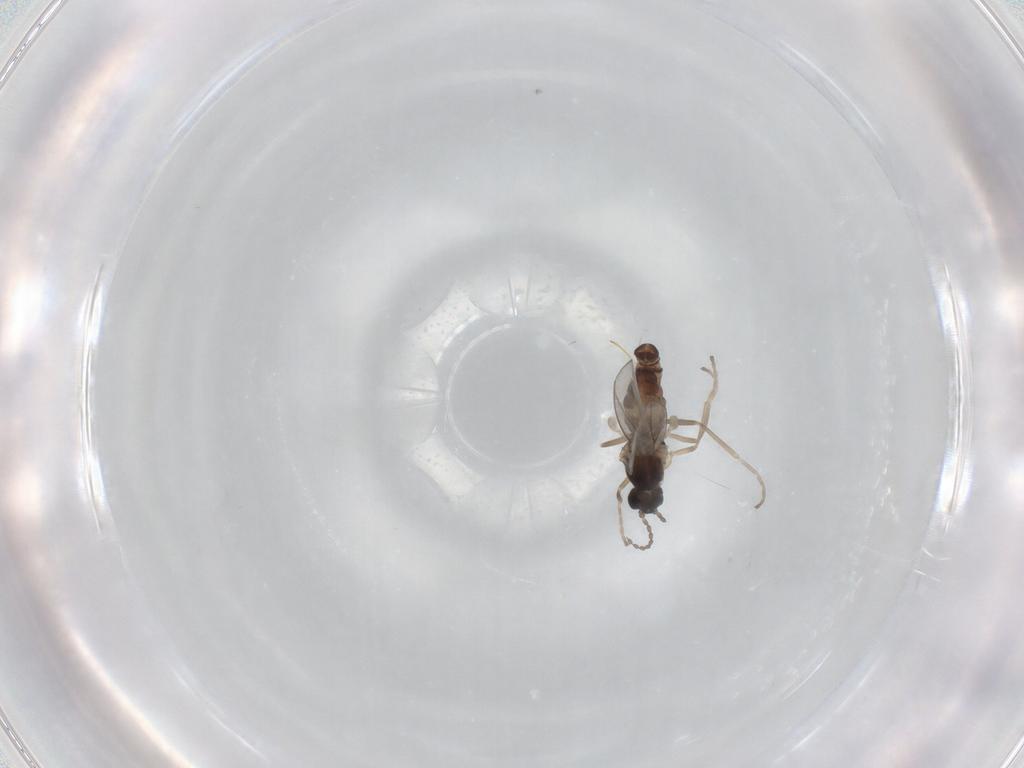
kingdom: Animalia
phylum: Arthropoda
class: Insecta
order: Diptera
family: Cecidomyiidae
